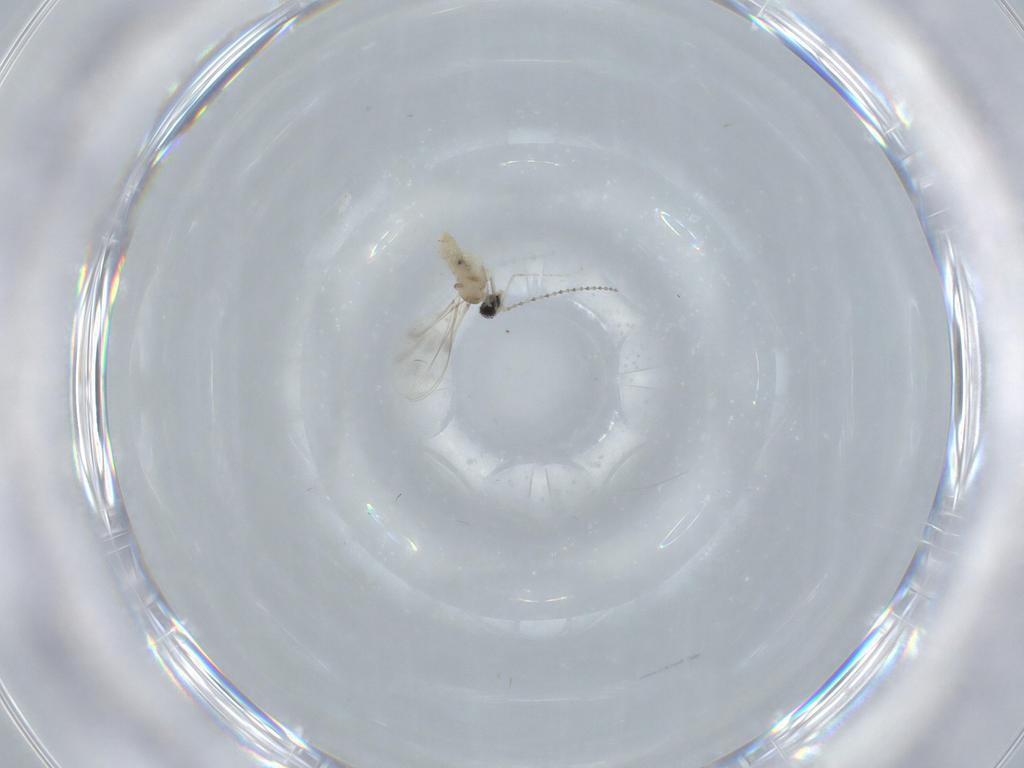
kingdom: Animalia
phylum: Arthropoda
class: Insecta
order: Diptera
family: Cecidomyiidae
